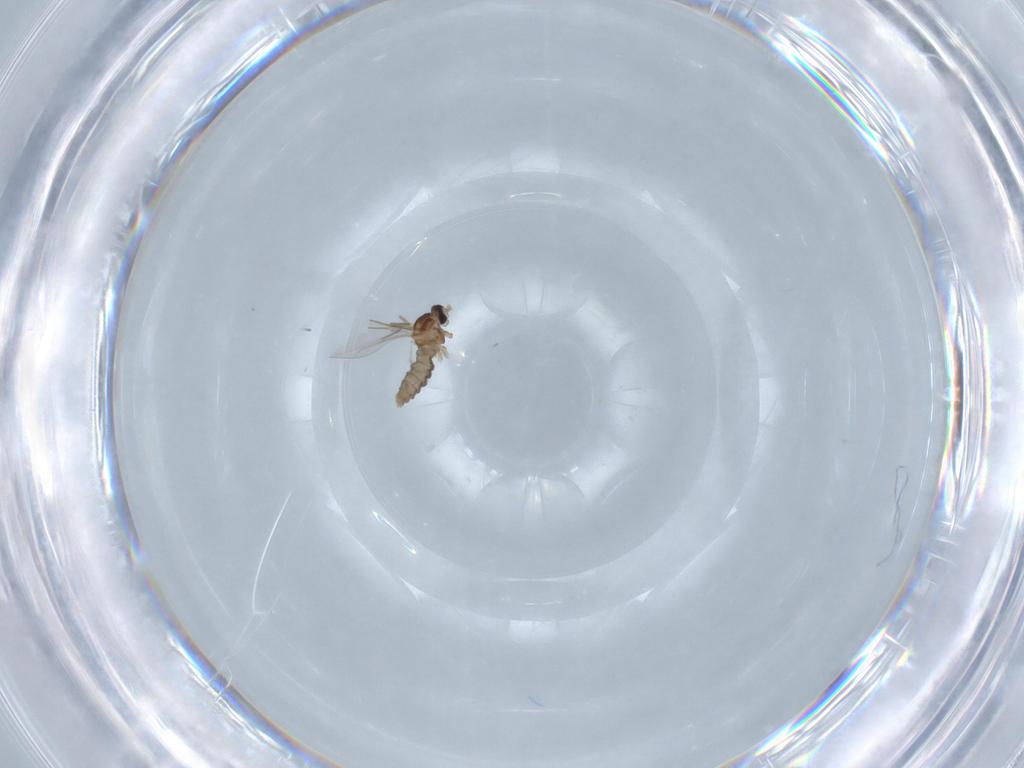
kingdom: Animalia
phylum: Arthropoda
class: Insecta
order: Diptera
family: Cecidomyiidae
